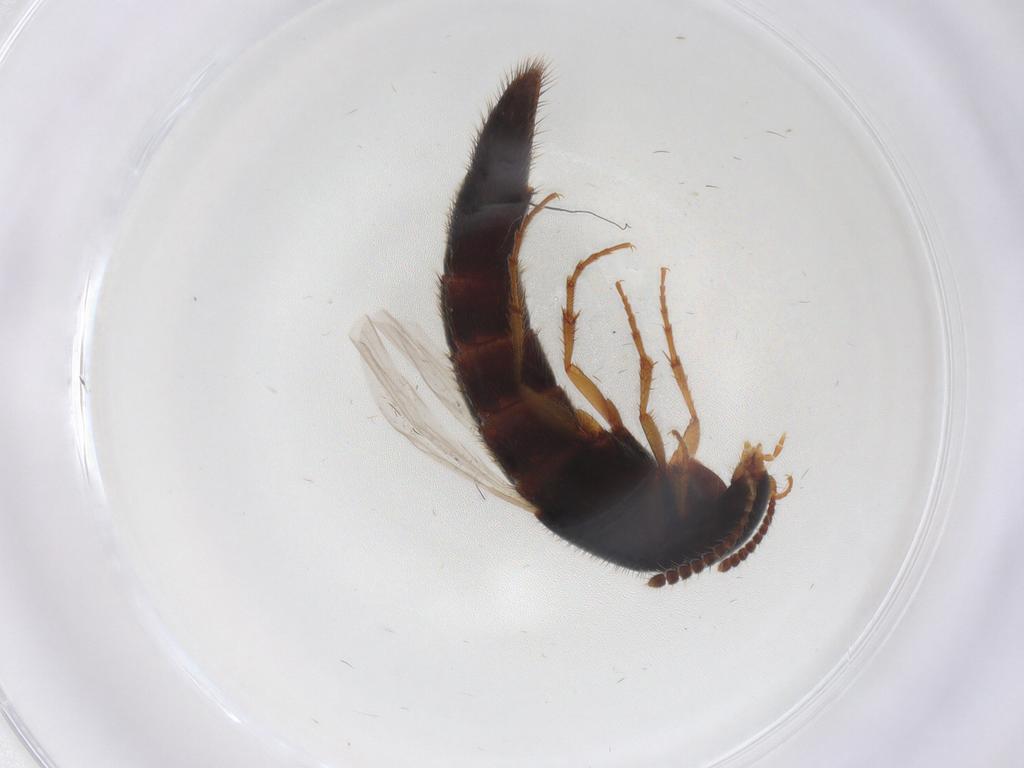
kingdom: Animalia
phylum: Arthropoda
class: Insecta
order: Coleoptera
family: Staphylinidae
